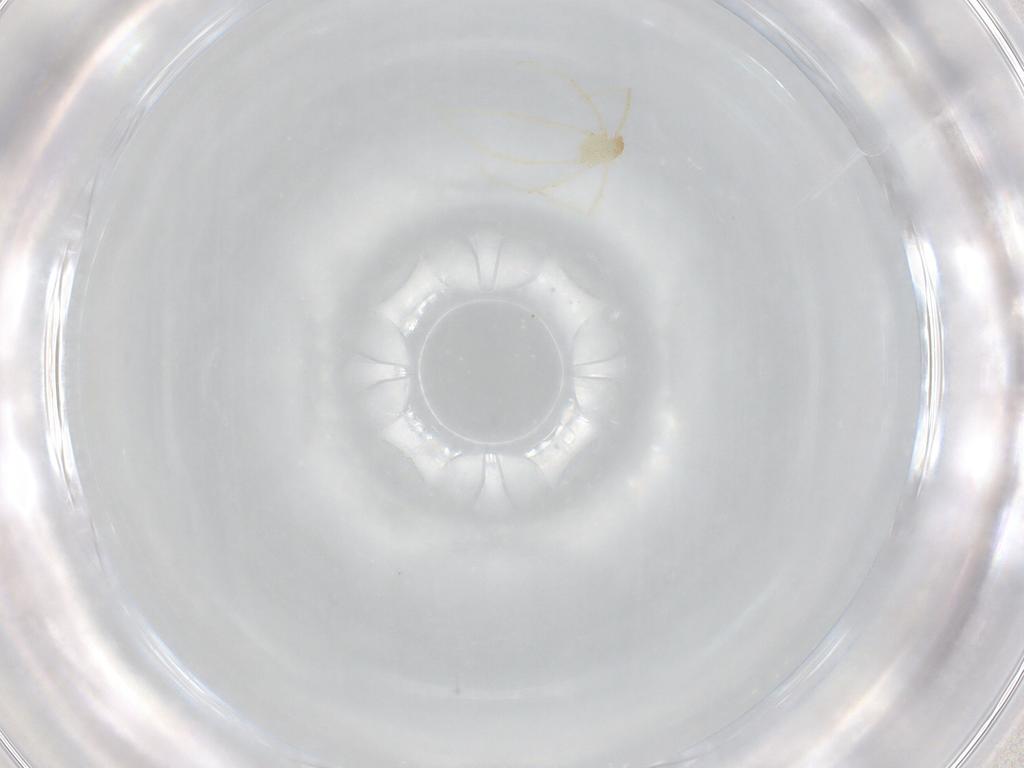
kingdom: Animalia
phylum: Arthropoda
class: Arachnida
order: Trombidiformes
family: Erythraeidae
